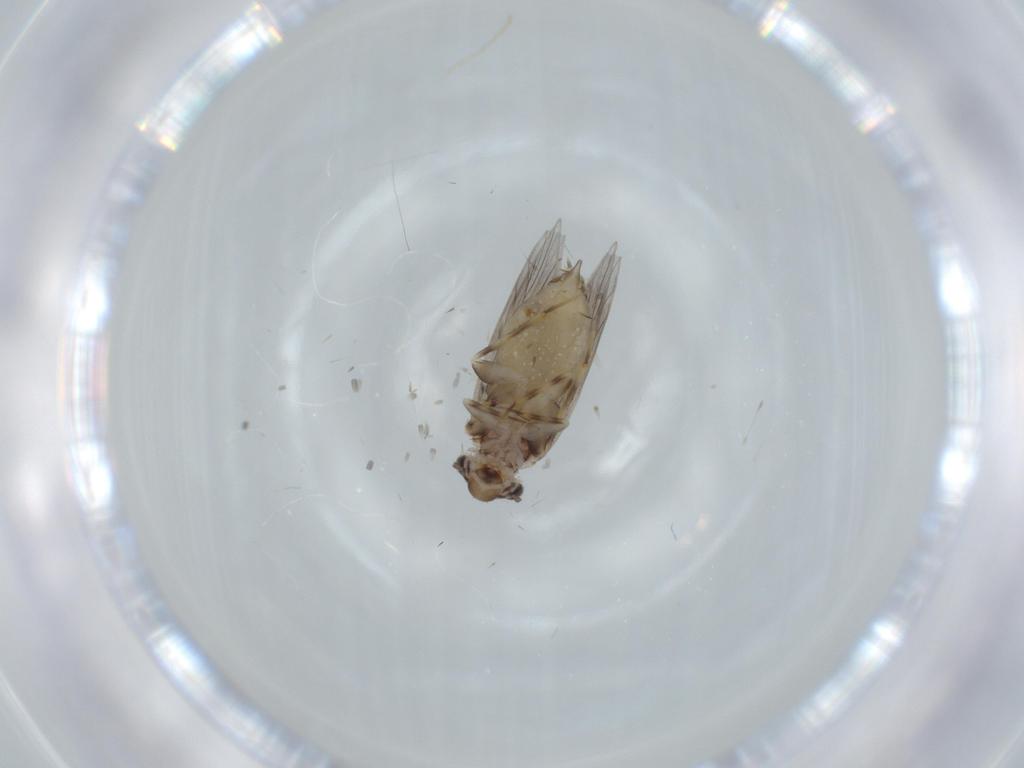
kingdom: Animalia
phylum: Arthropoda
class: Insecta
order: Psocodea
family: Lepidopsocidae
